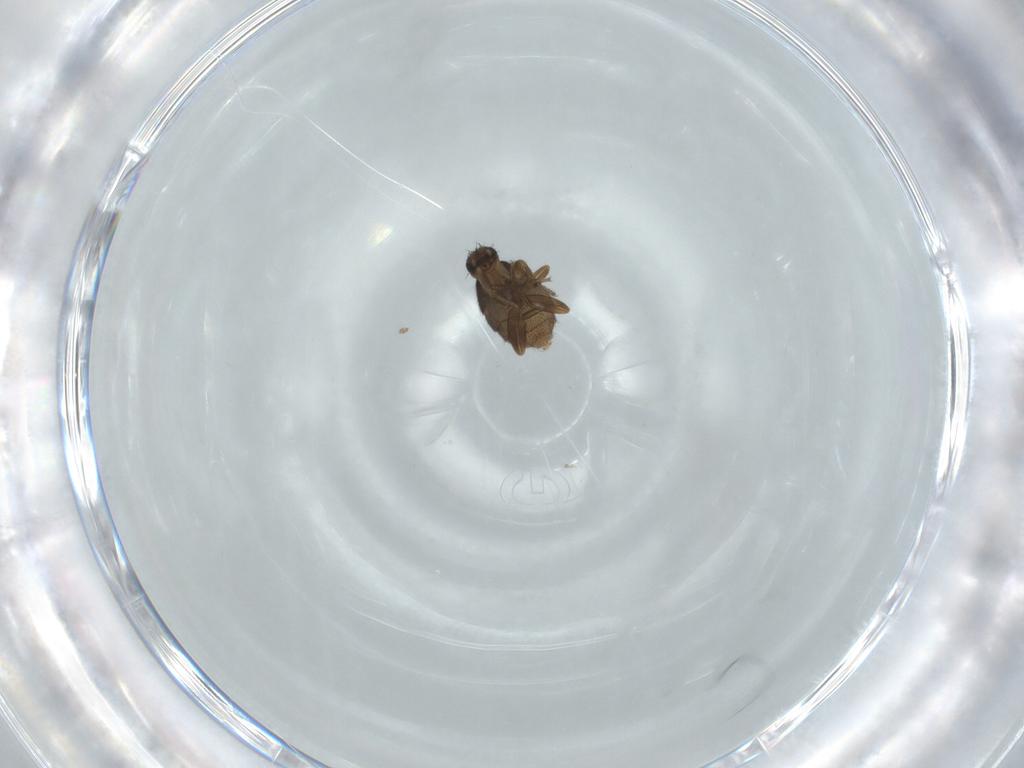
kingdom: Animalia
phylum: Arthropoda
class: Insecta
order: Diptera
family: Phoridae
